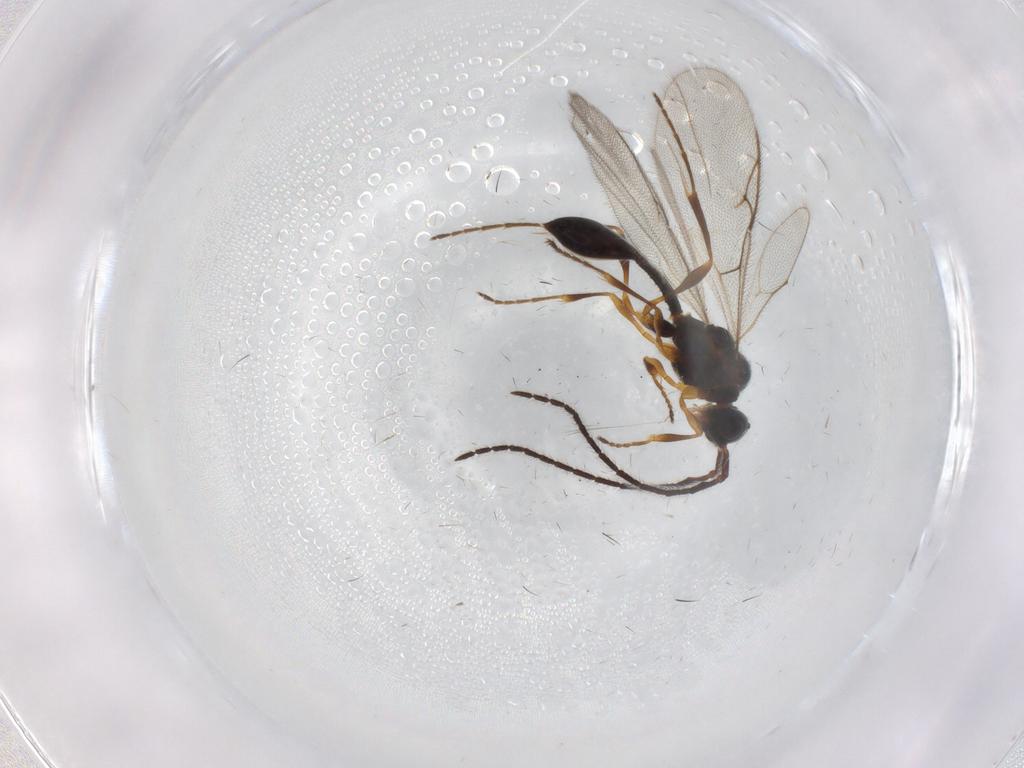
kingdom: Animalia
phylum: Arthropoda
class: Insecta
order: Hymenoptera
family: Diapriidae
